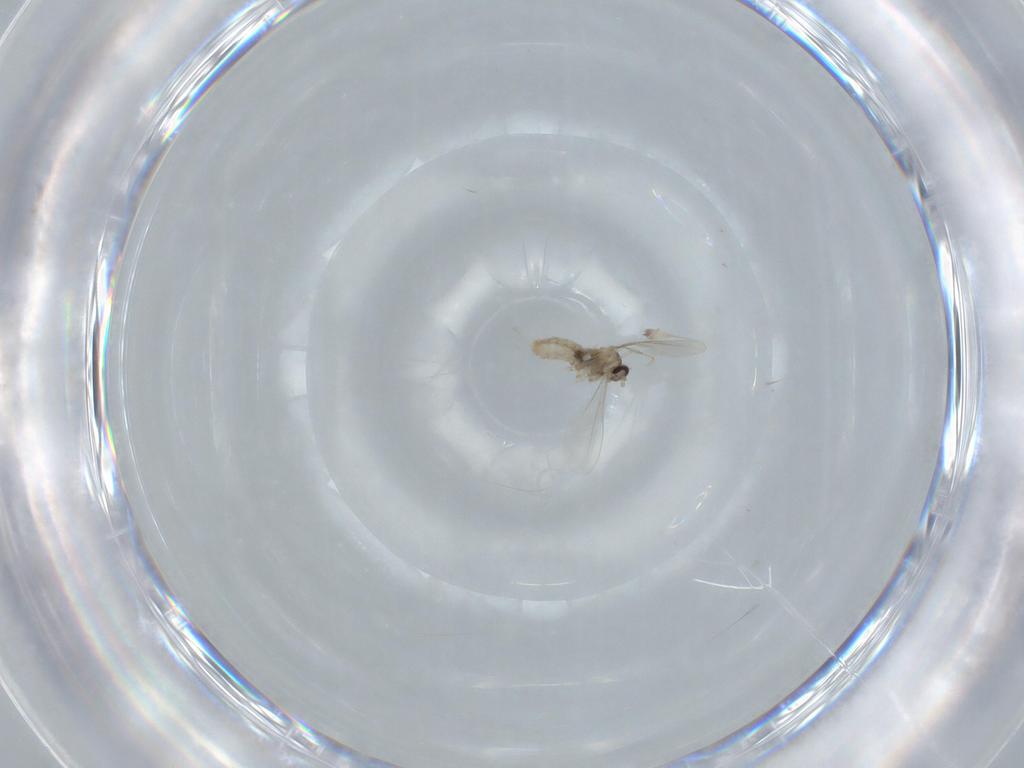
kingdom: Animalia
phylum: Arthropoda
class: Insecta
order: Diptera
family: Cecidomyiidae
